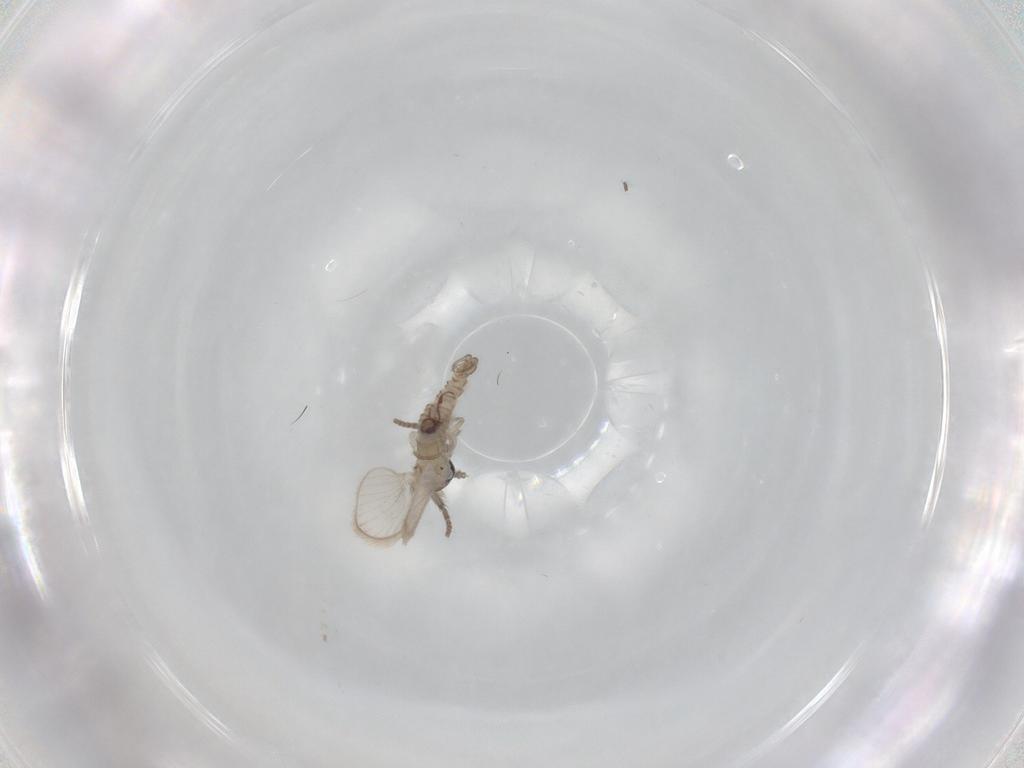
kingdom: Animalia
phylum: Arthropoda
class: Insecta
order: Diptera
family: Psychodidae
